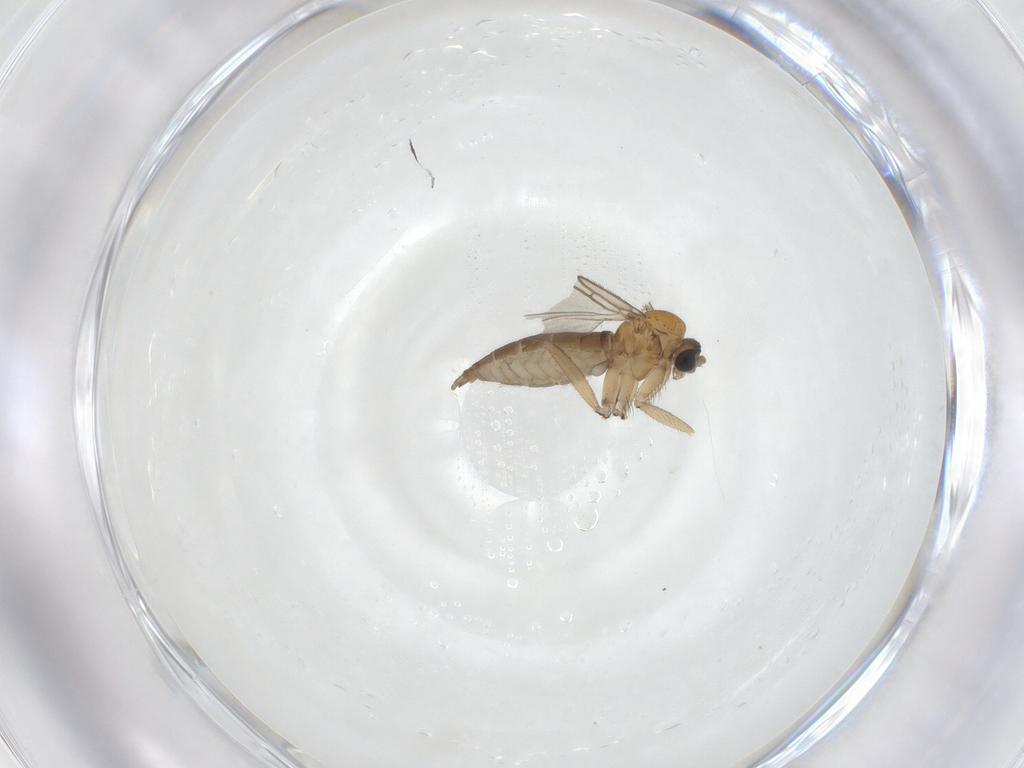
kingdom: Animalia
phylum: Arthropoda
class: Insecta
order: Diptera
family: Sciaridae
